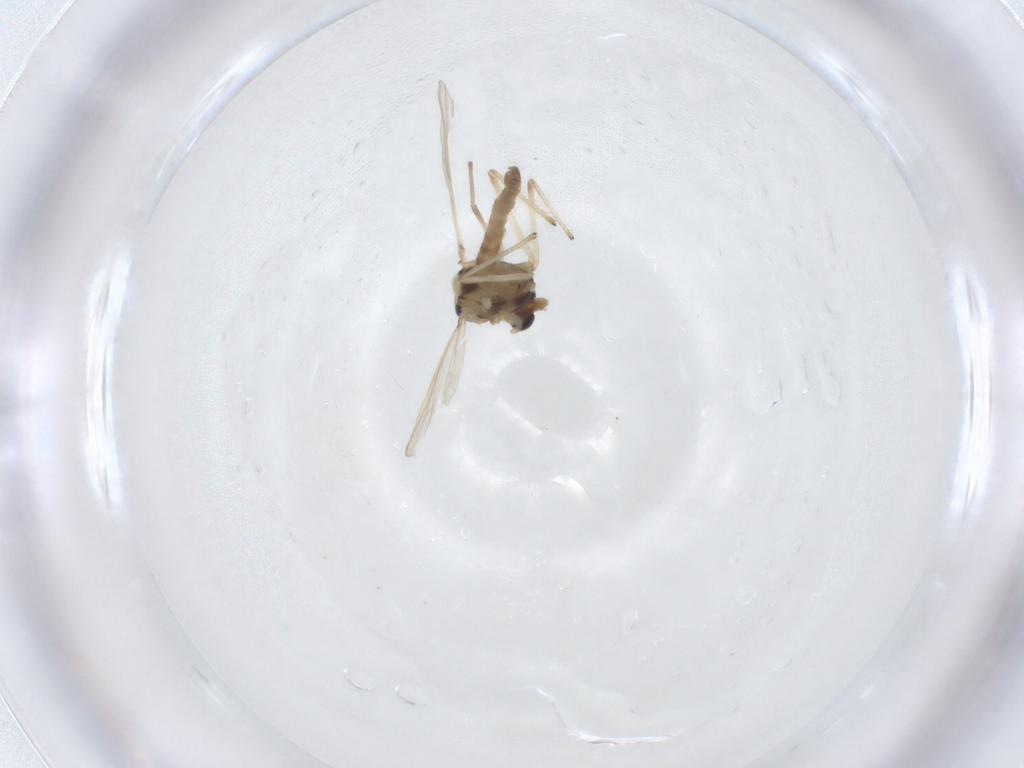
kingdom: Animalia
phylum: Arthropoda
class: Insecta
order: Diptera
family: Chironomidae
